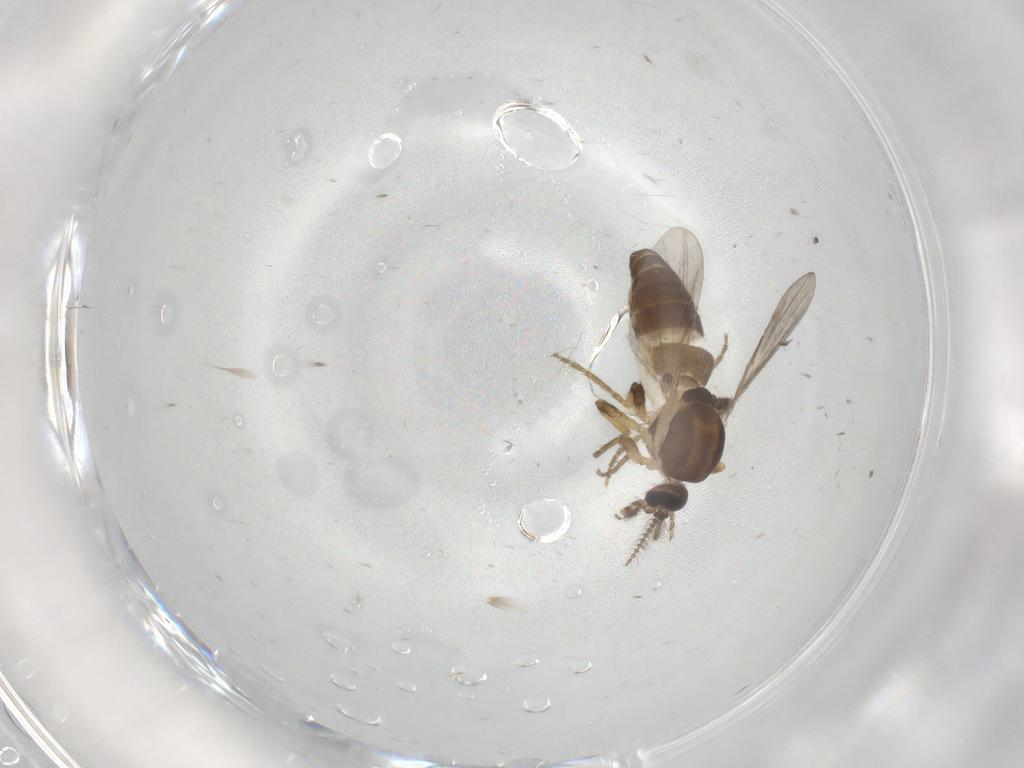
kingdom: Animalia
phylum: Arthropoda
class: Insecta
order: Diptera
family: Ceratopogonidae
